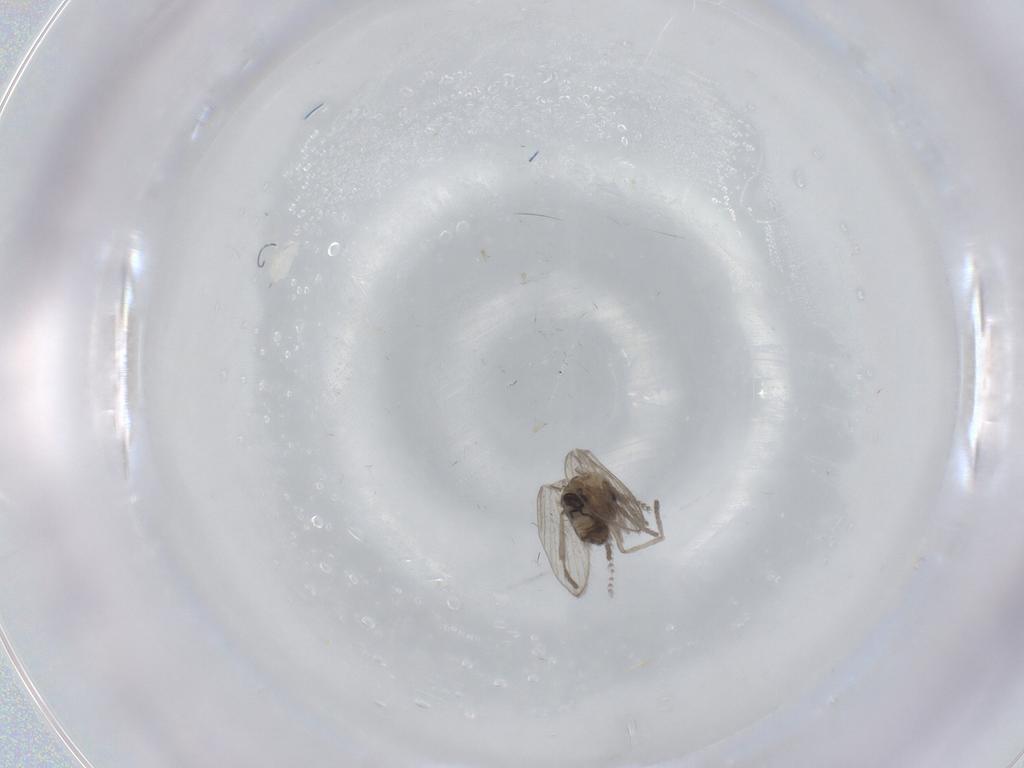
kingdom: Animalia
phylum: Arthropoda
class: Insecta
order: Diptera
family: Psychodidae
